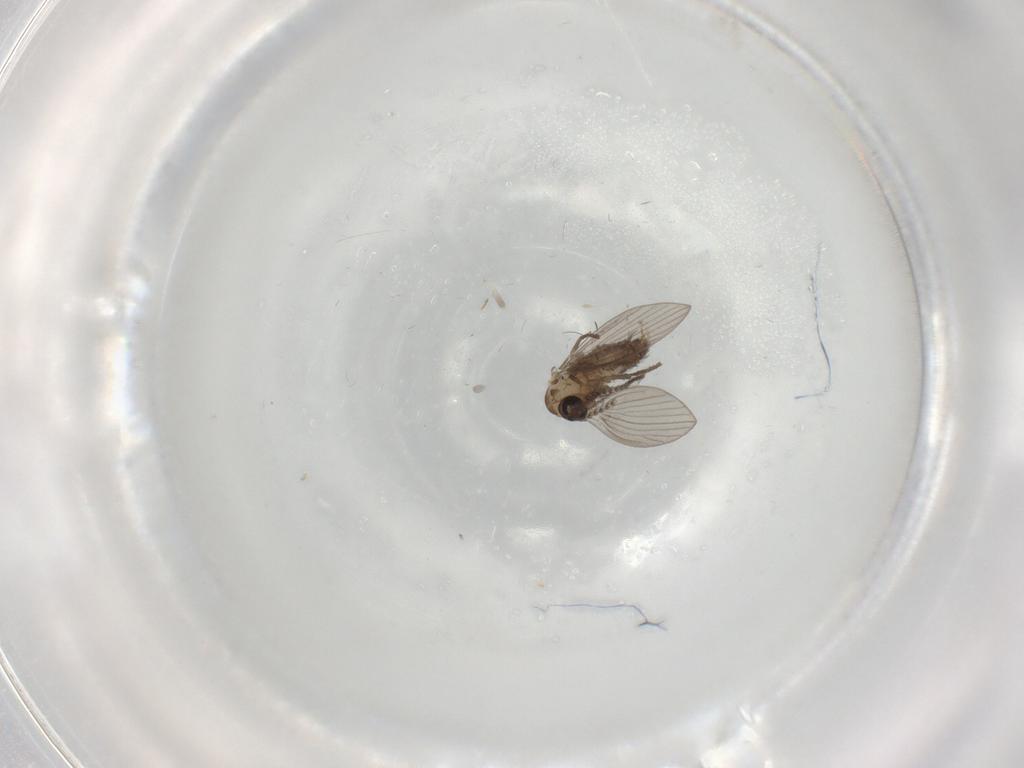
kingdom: Animalia
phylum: Arthropoda
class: Insecta
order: Diptera
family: Psychodidae
